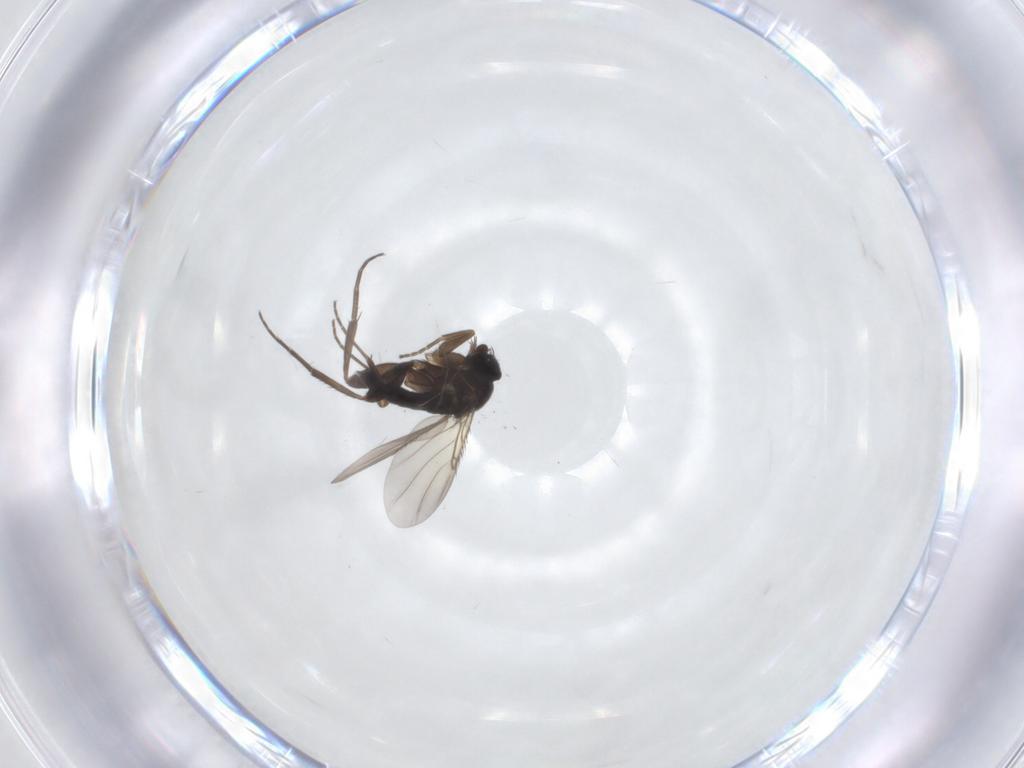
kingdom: Animalia
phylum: Arthropoda
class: Insecta
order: Diptera
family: Phoridae
